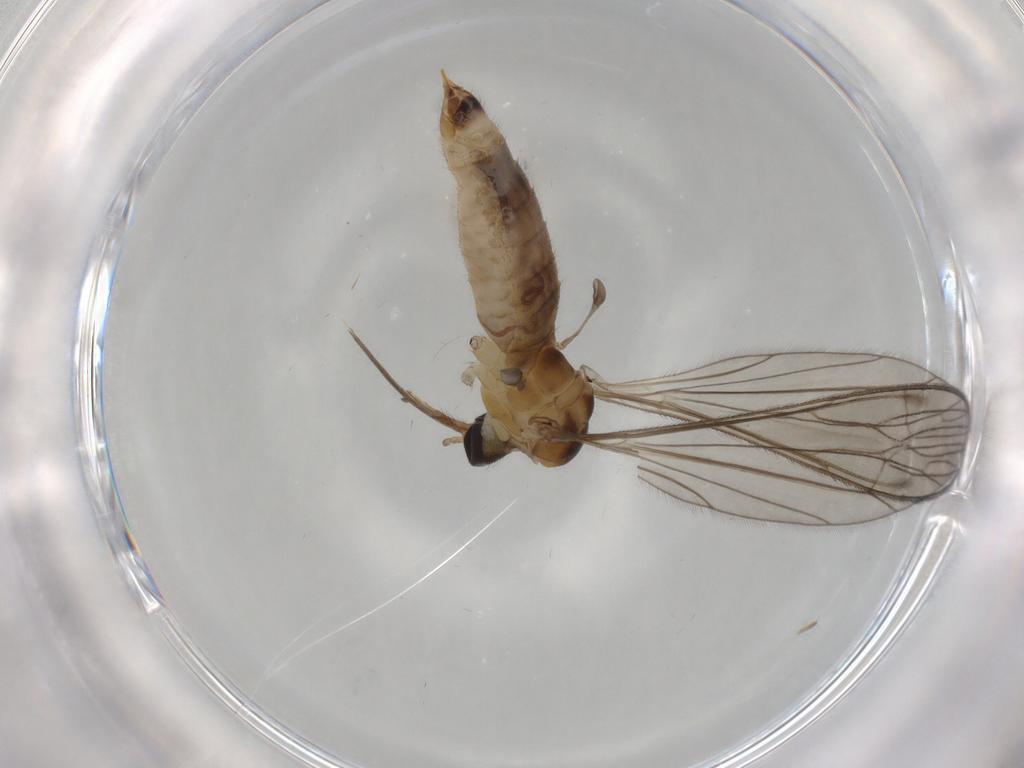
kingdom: Animalia
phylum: Arthropoda
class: Insecta
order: Diptera
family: Limoniidae
